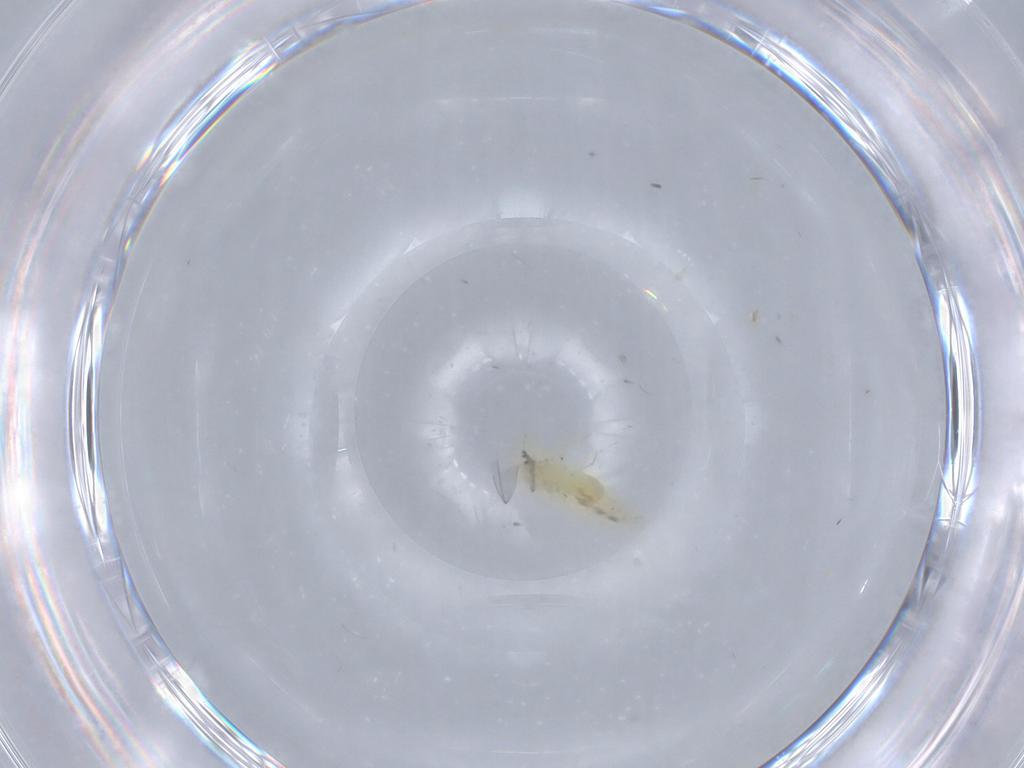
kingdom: Animalia
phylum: Arthropoda
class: Insecta
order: Hemiptera
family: Aleyrodidae
